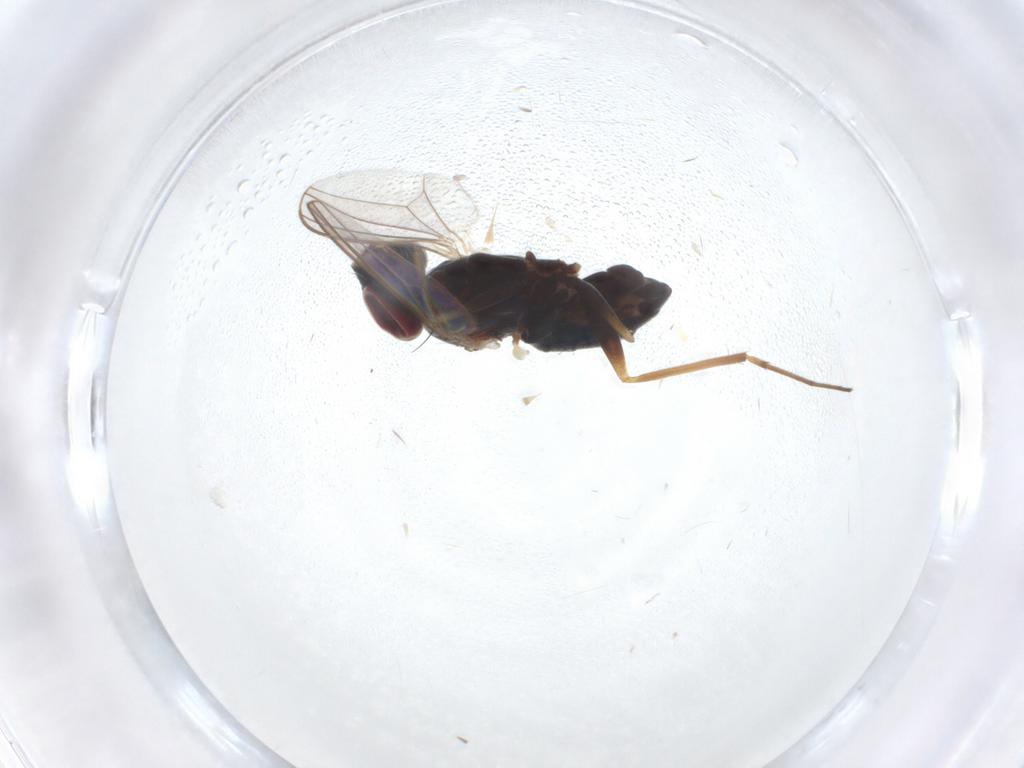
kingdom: Animalia
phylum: Arthropoda
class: Insecta
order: Diptera
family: Dolichopodidae
